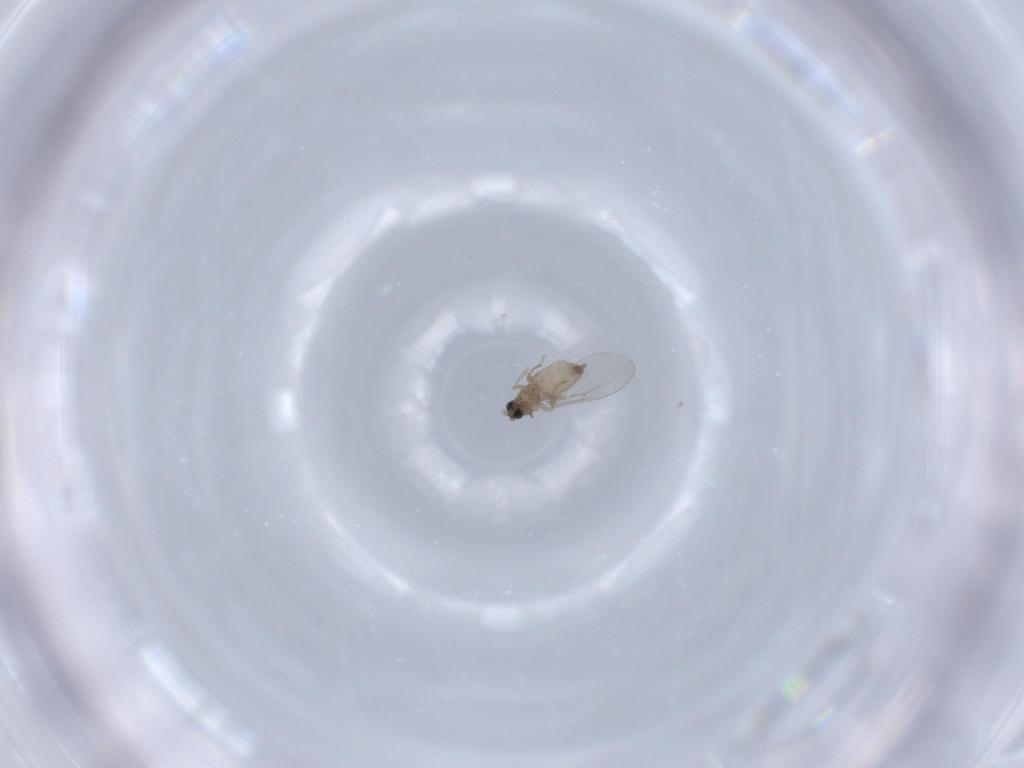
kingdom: Animalia
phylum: Arthropoda
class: Insecta
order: Diptera
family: Cecidomyiidae
